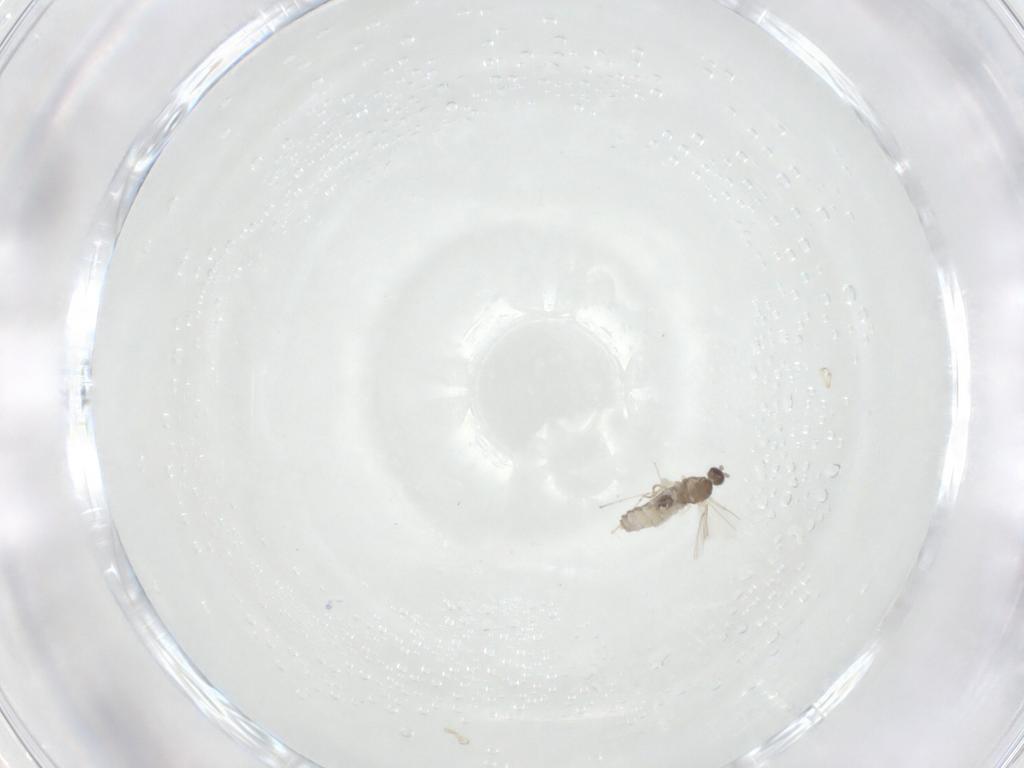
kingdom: Animalia
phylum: Arthropoda
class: Insecta
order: Diptera
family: Cecidomyiidae
